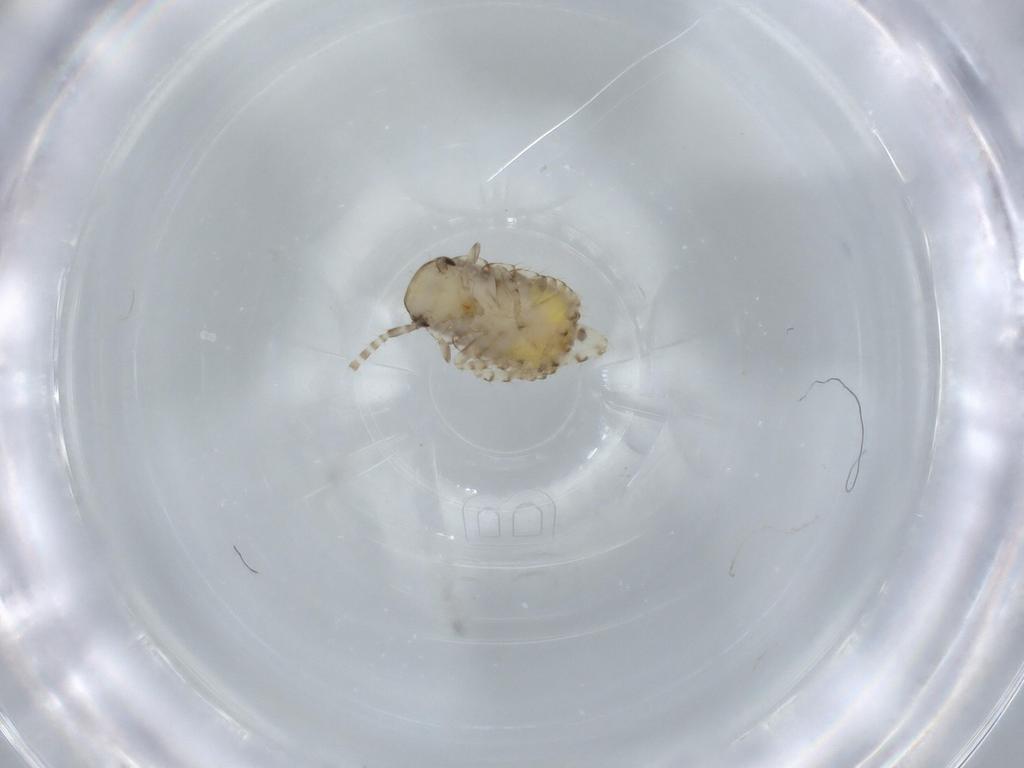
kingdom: Animalia
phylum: Arthropoda
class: Insecta
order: Blattodea
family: Ectobiidae
